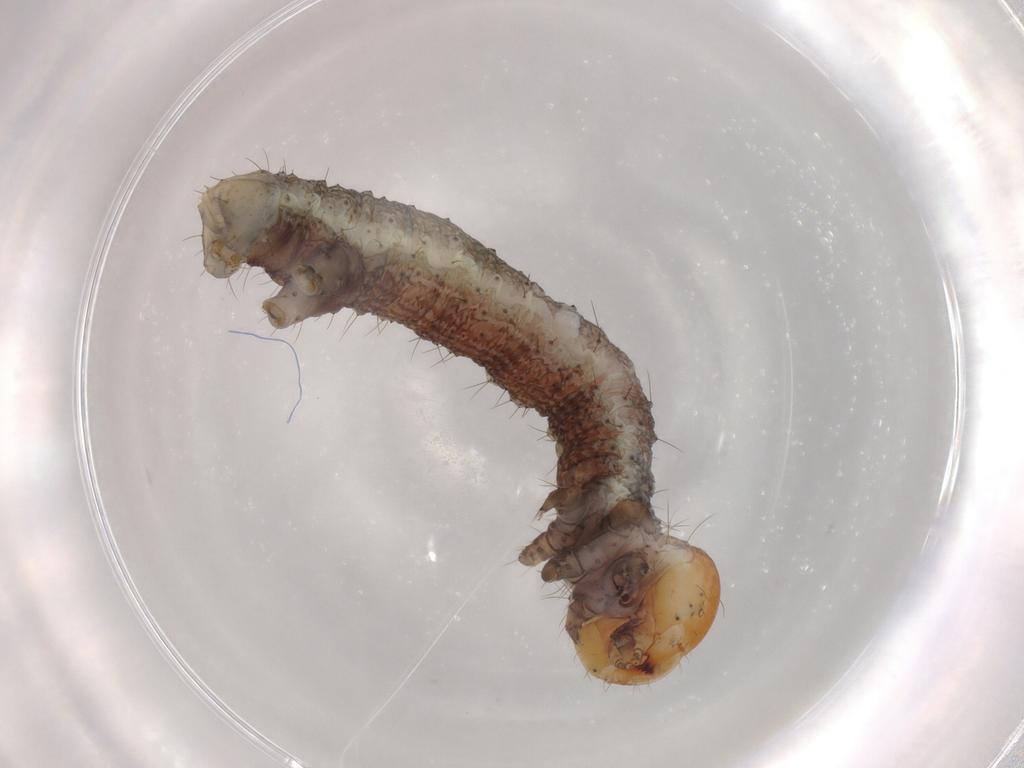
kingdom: Animalia
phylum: Arthropoda
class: Insecta
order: Lepidoptera
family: Geometridae
